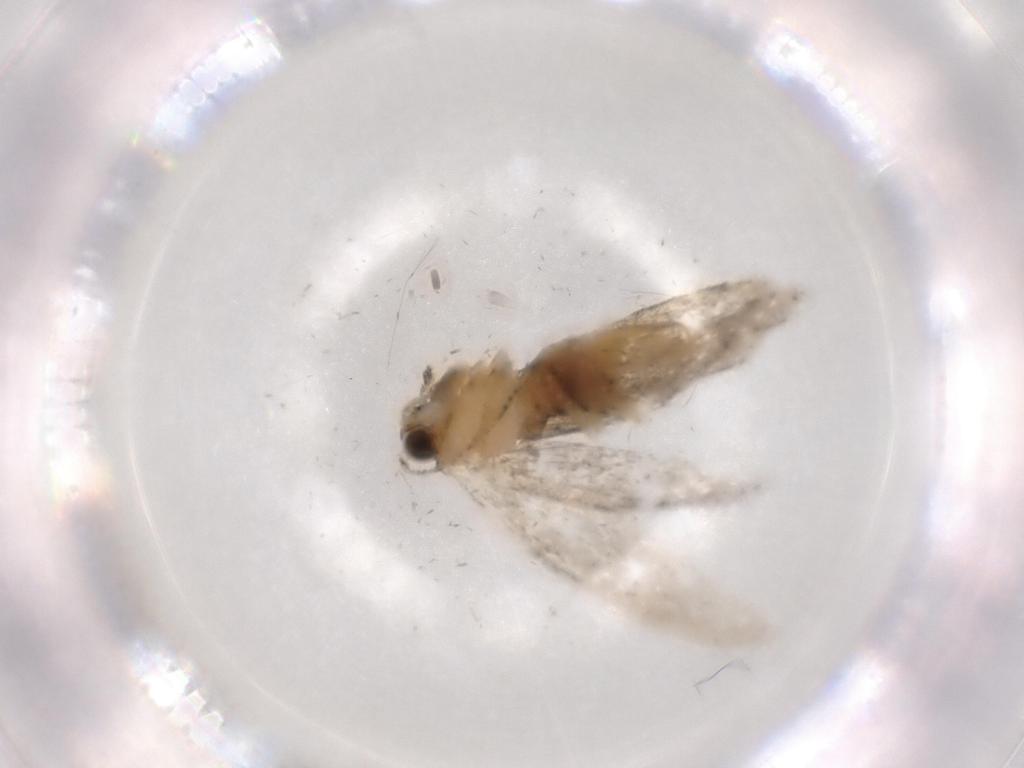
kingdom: Animalia
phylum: Arthropoda
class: Insecta
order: Lepidoptera
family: Tineidae
